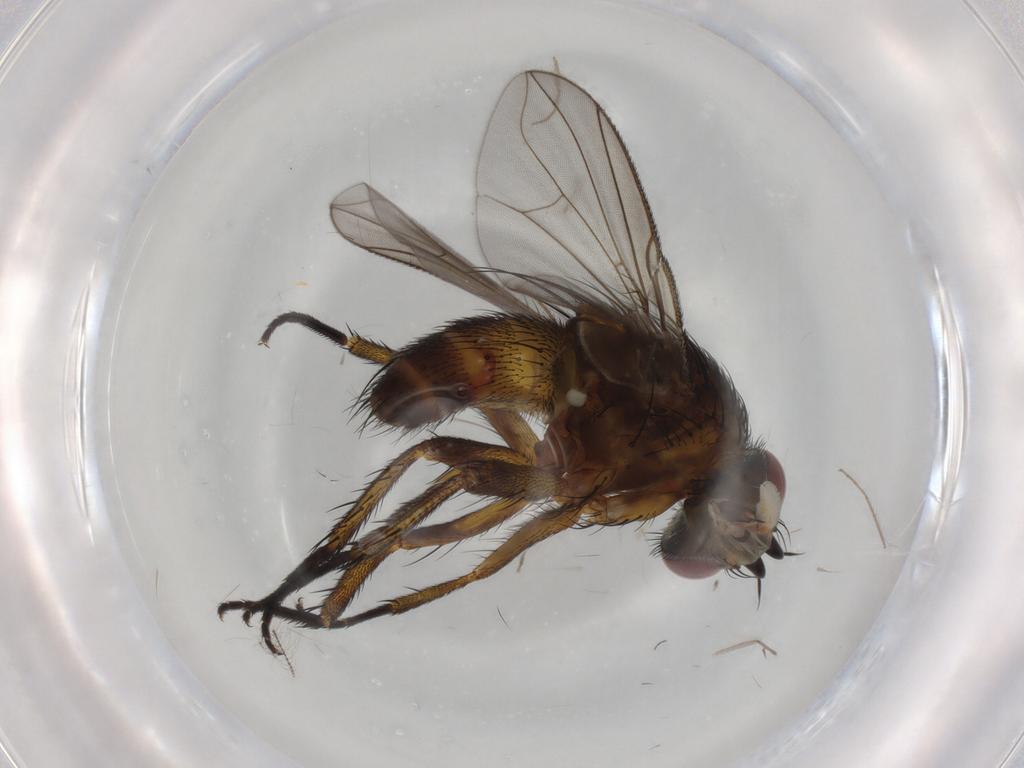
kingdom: Animalia
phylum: Arthropoda
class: Insecta
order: Diptera
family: Tachinidae
